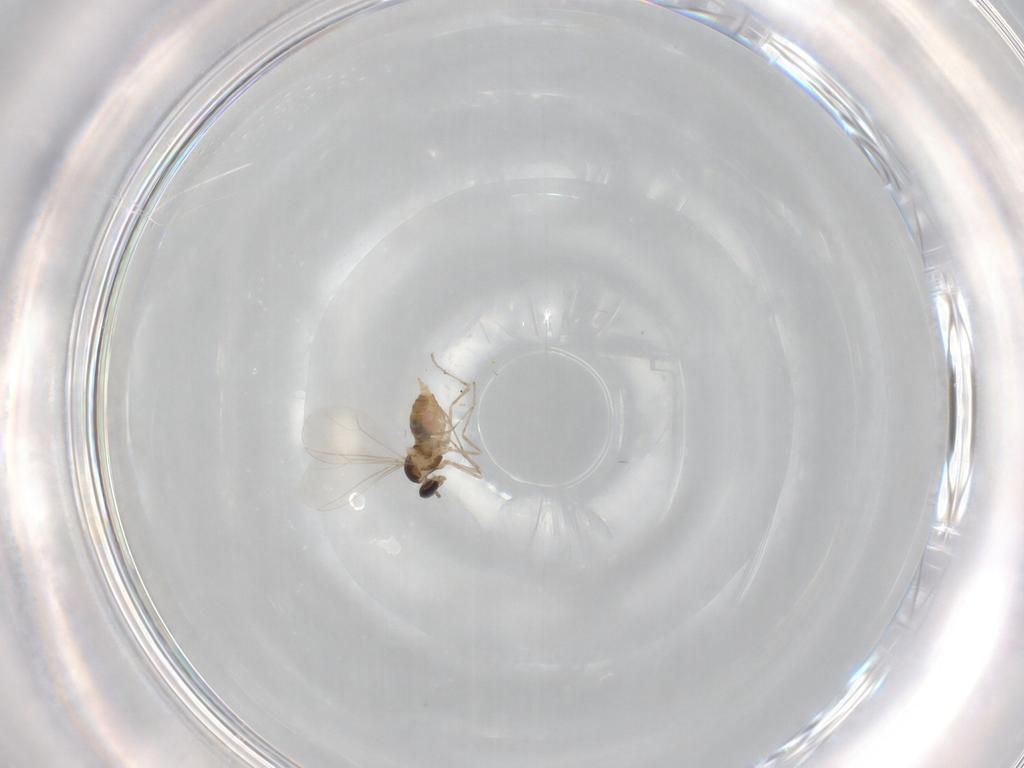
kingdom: Animalia
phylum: Arthropoda
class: Insecta
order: Diptera
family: Cecidomyiidae
